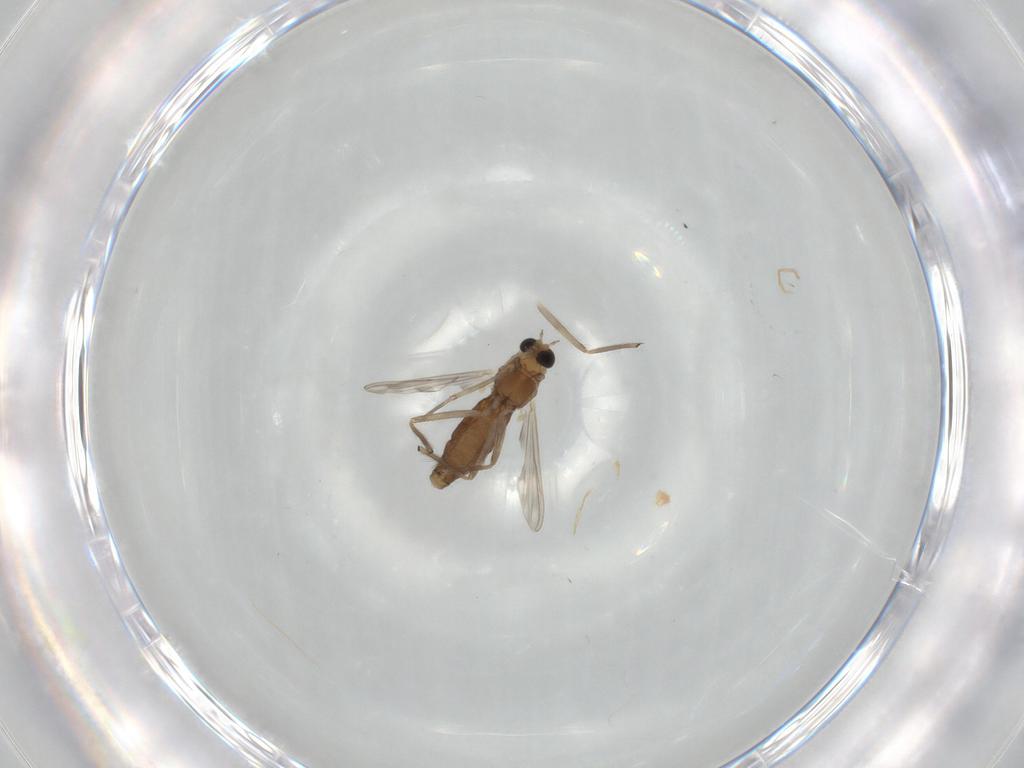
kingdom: Animalia
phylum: Arthropoda
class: Insecta
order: Diptera
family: Chironomidae
